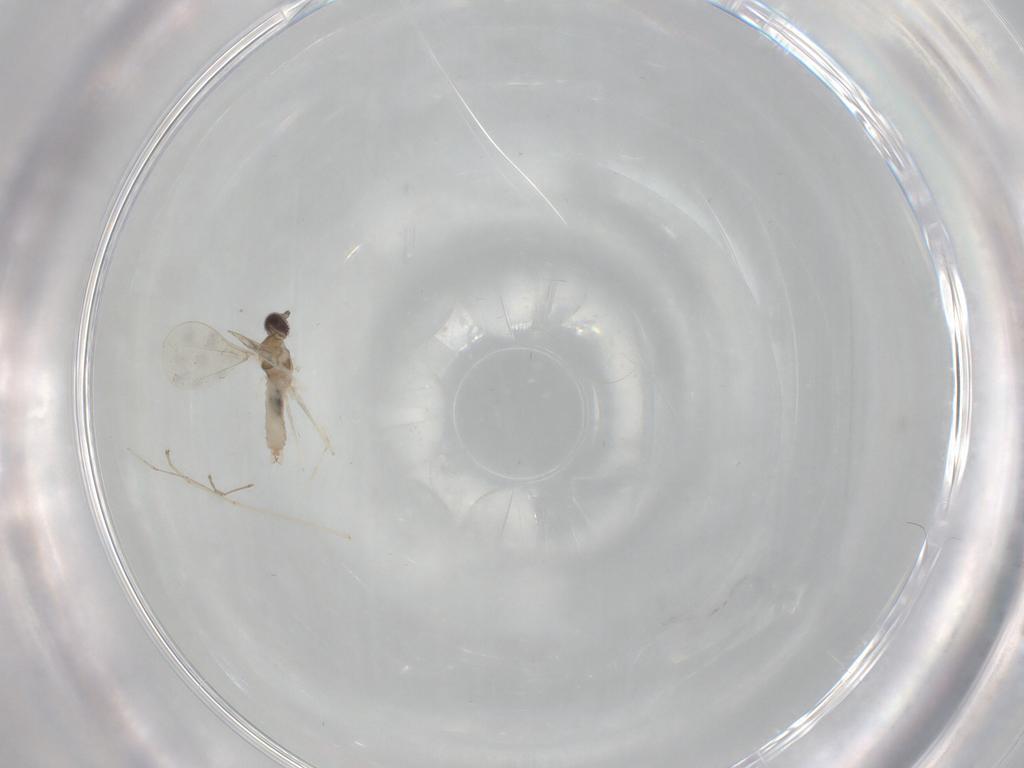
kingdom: Animalia
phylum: Arthropoda
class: Insecta
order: Diptera
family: Cecidomyiidae
